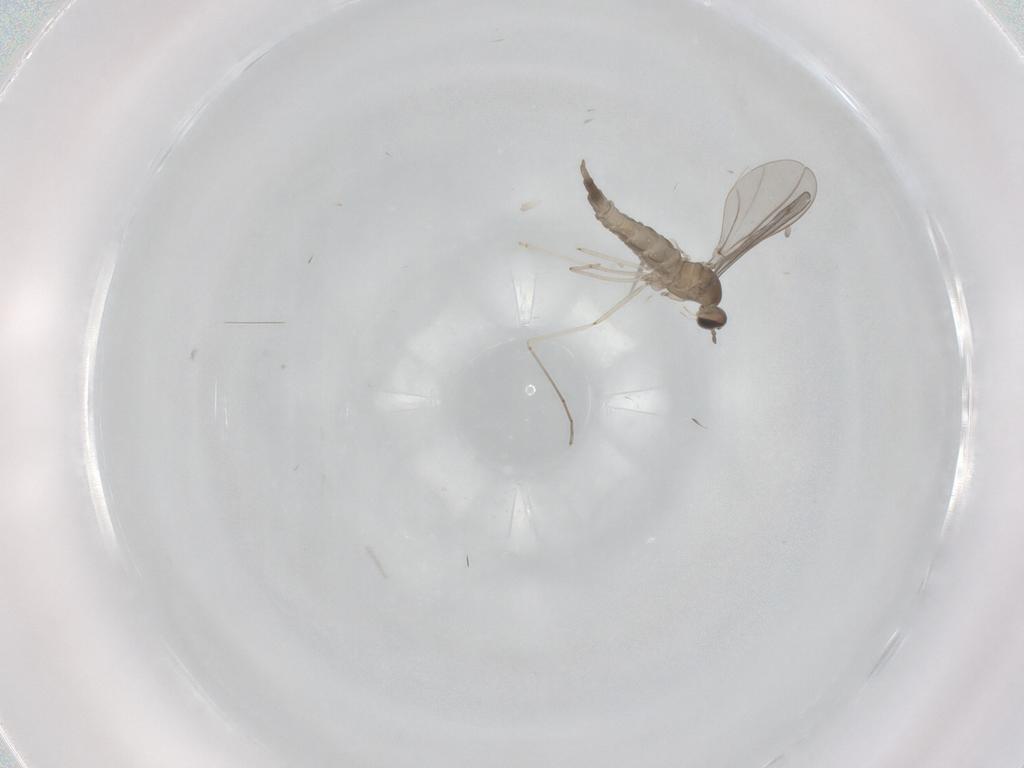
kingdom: Animalia
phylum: Arthropoda
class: Insecta
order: Diptera
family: Cecidomyiidae
